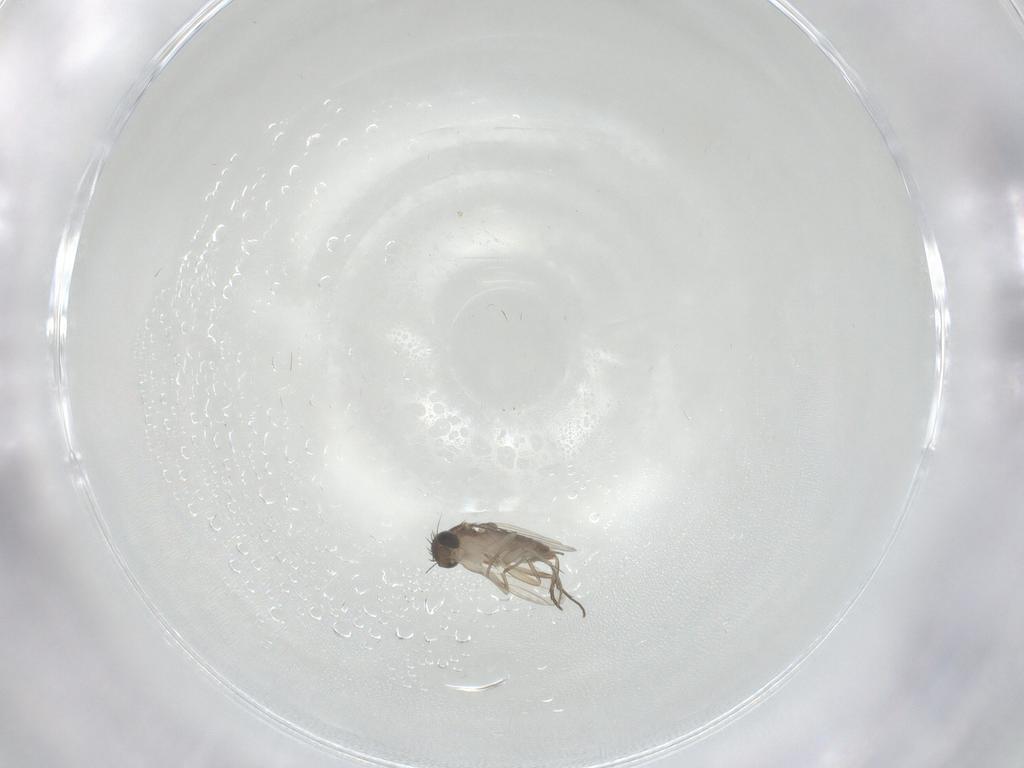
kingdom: Animalia
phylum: Arthropoda
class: Insecta
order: Diptera
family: Phoridae
